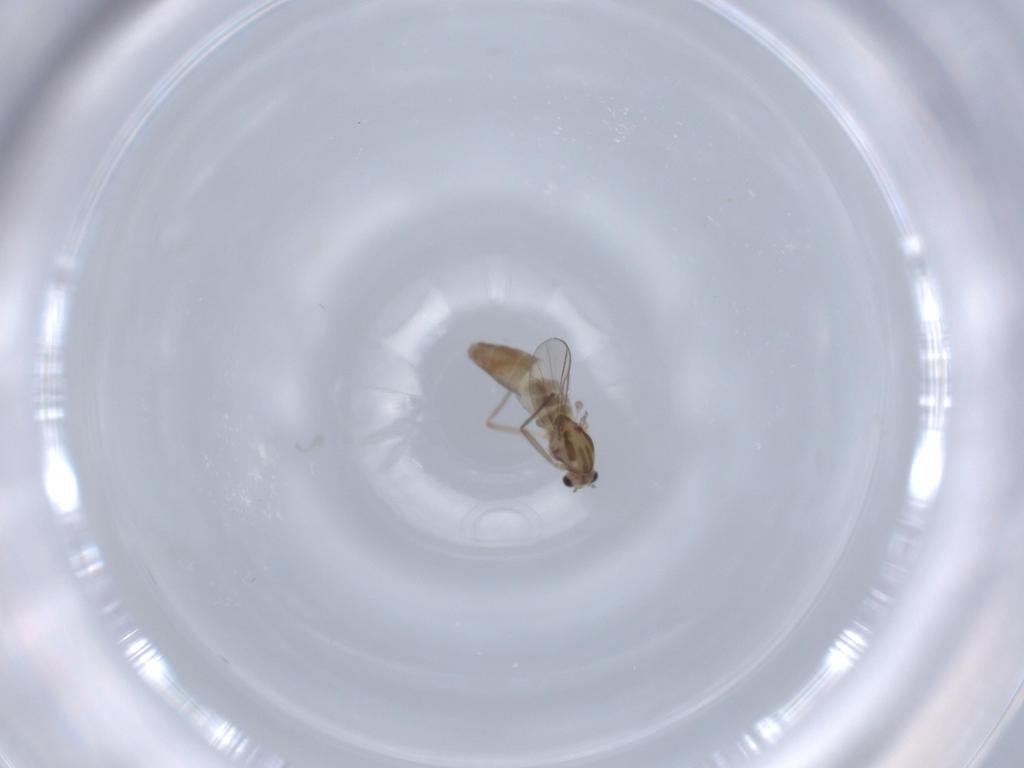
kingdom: Animalia
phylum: Arthropoda
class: Insecta
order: Diptera
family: Chironomidae
